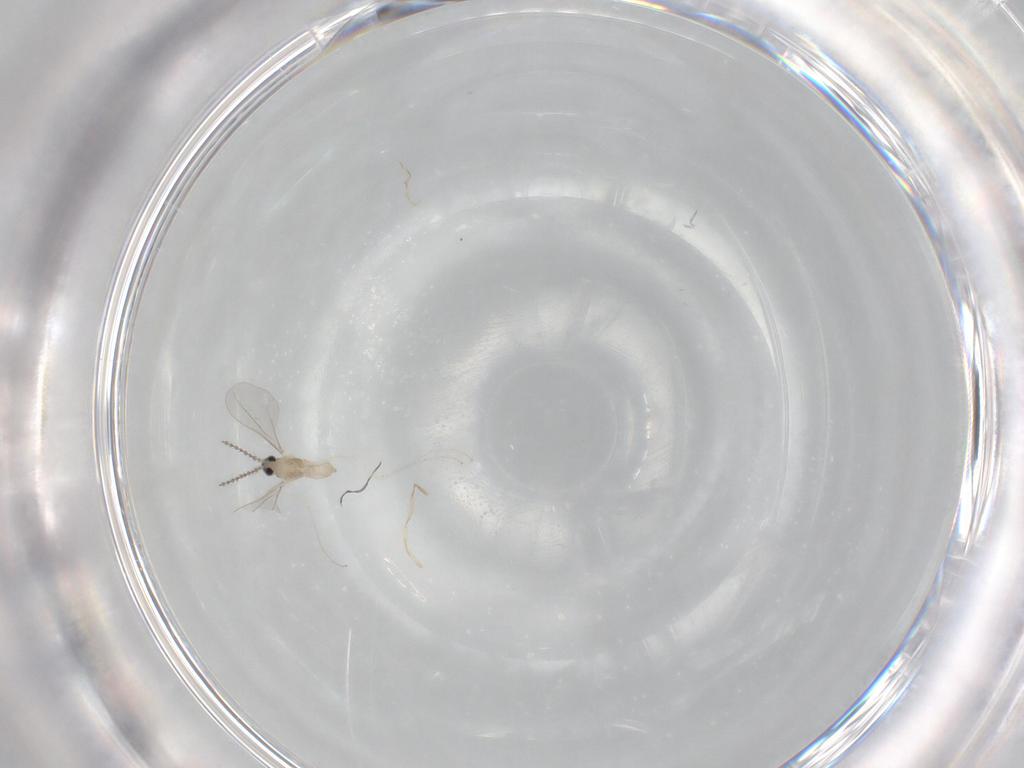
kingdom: Animalia
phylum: Arthropoda
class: Insecta
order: Diptera
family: Cecidomyiidae
